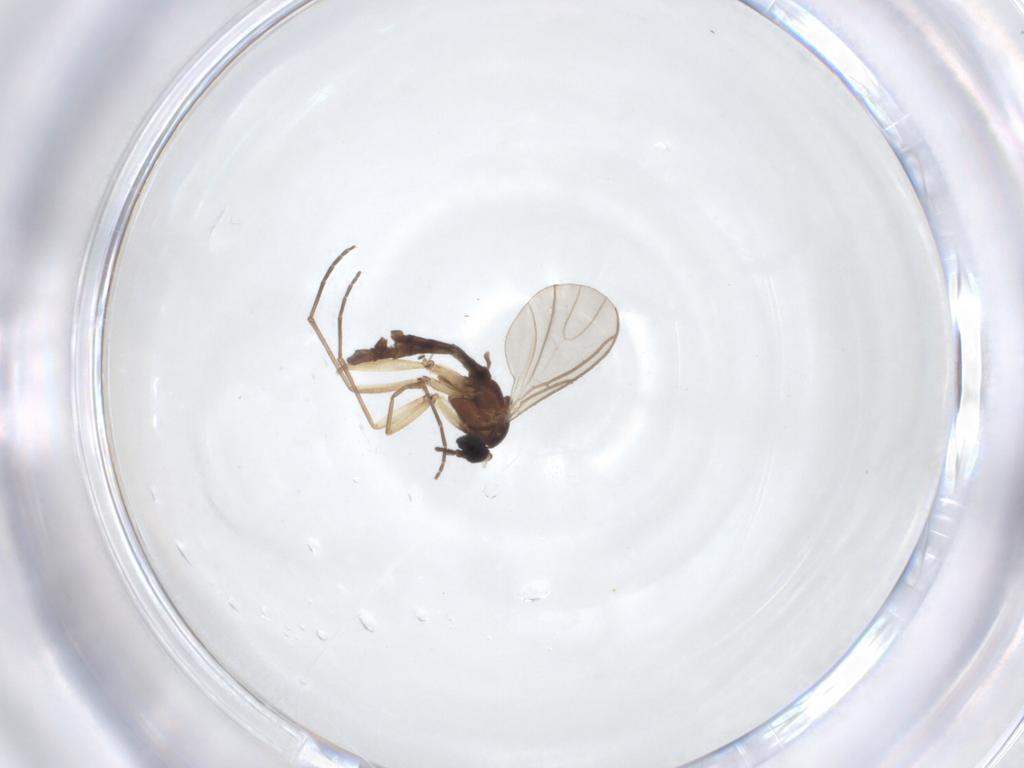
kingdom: Animalia
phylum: Arthropoda
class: Insecta
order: Diptera
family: Sciaridae
